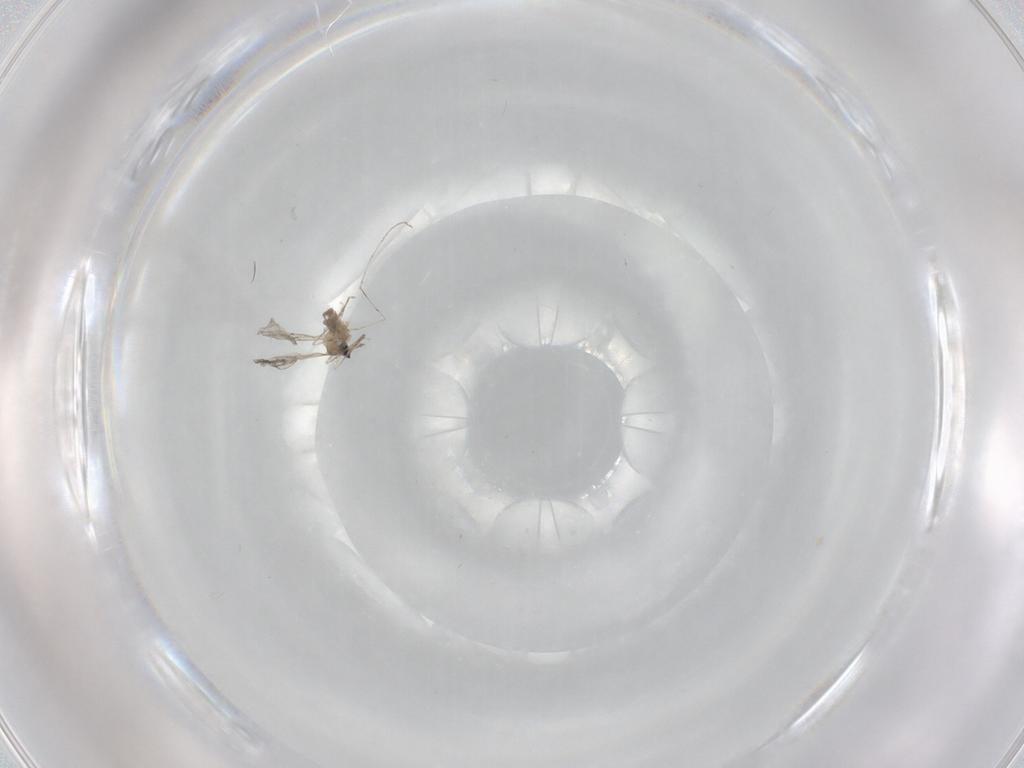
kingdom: Animalia
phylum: Arthropoda
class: Insecta
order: Diptera
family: Cecidomyiidae
